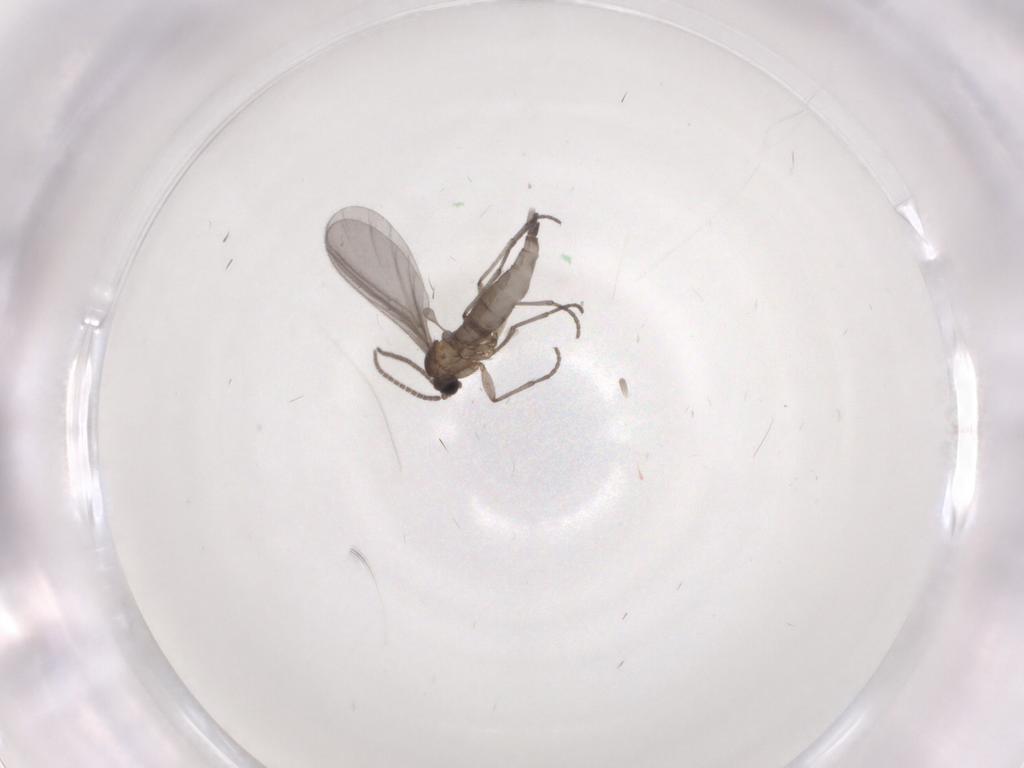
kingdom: Animalia
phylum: Arthropoda
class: Insecta
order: Diptera
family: Sciaridae
